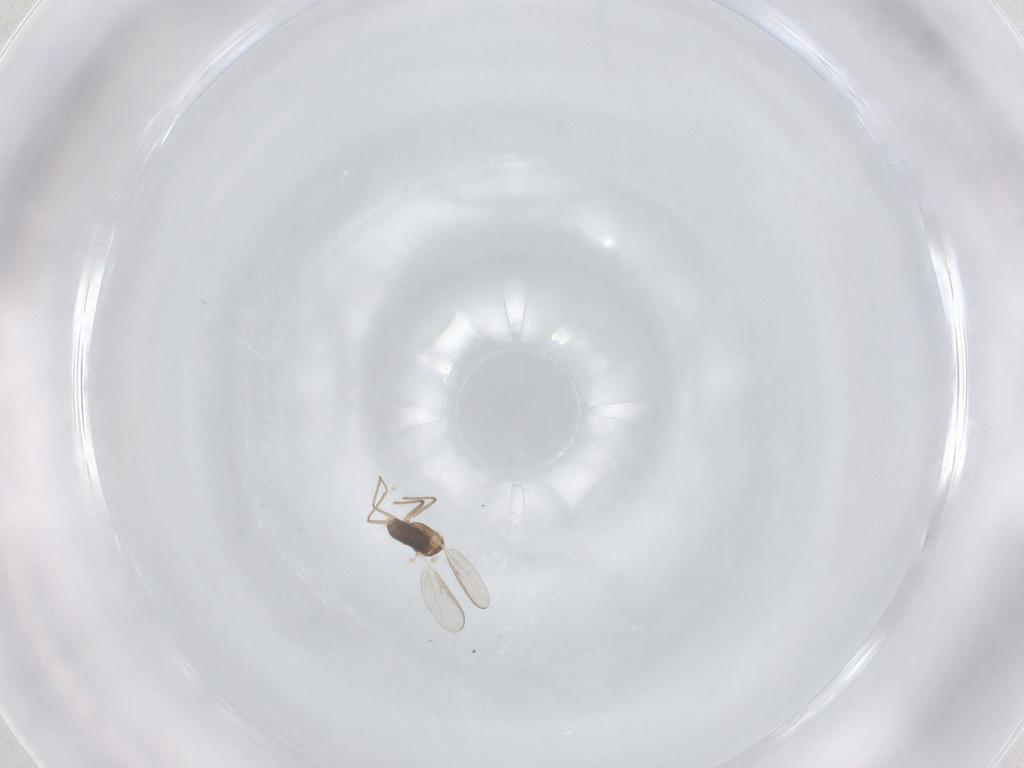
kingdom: Animalia
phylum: Arthropoda
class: Insecta
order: Diptera
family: Chironomidae
